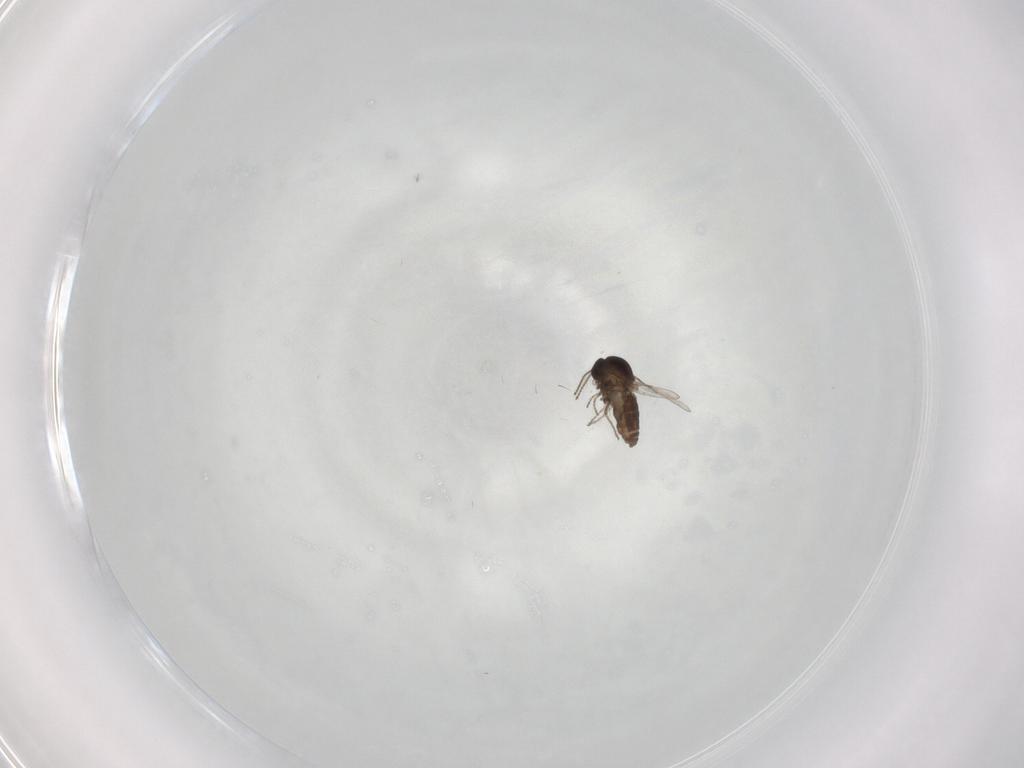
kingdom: Animalia
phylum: Arthropoda
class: Insecta
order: Diptera
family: Ceratopogonidae
